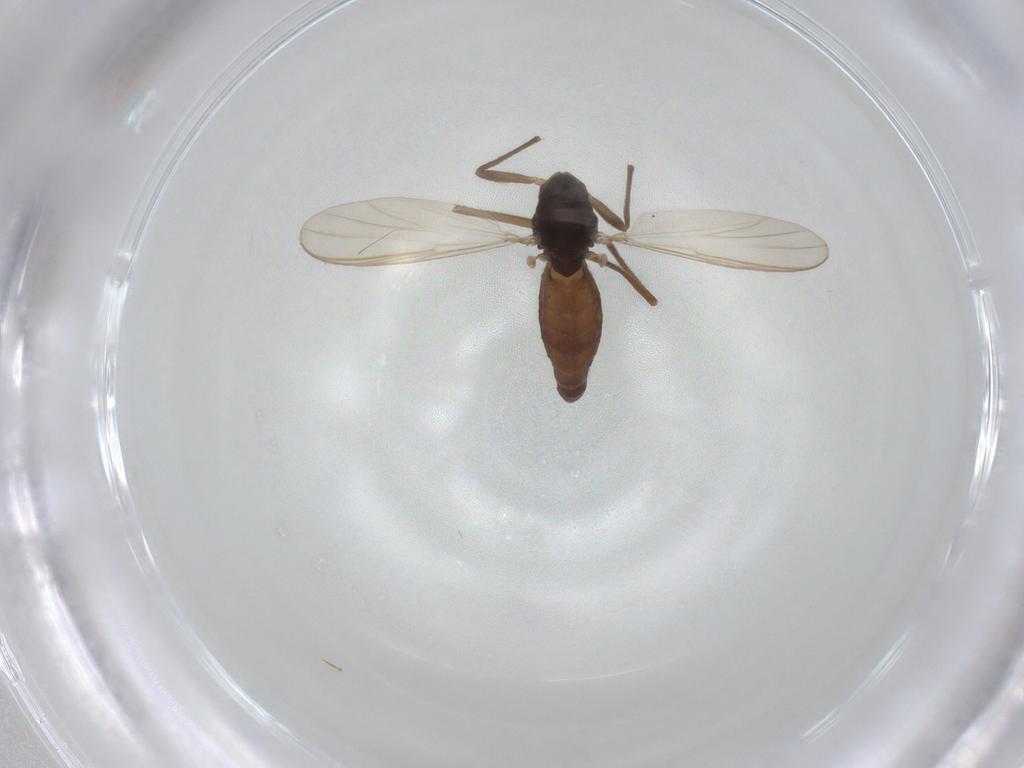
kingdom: Animalia
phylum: Arthropoda
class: Insecta
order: Diptera
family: Chironomidae
